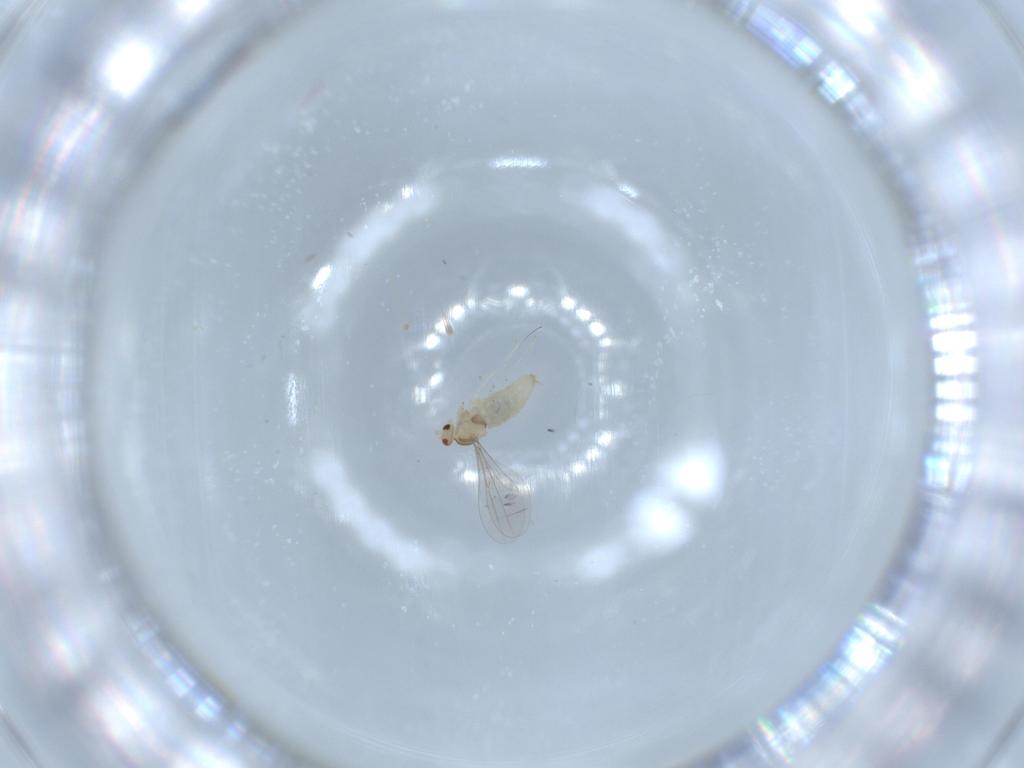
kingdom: Animalia
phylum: Arthropoda
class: Insecta
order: Diptera
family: Cecidomyiidae
